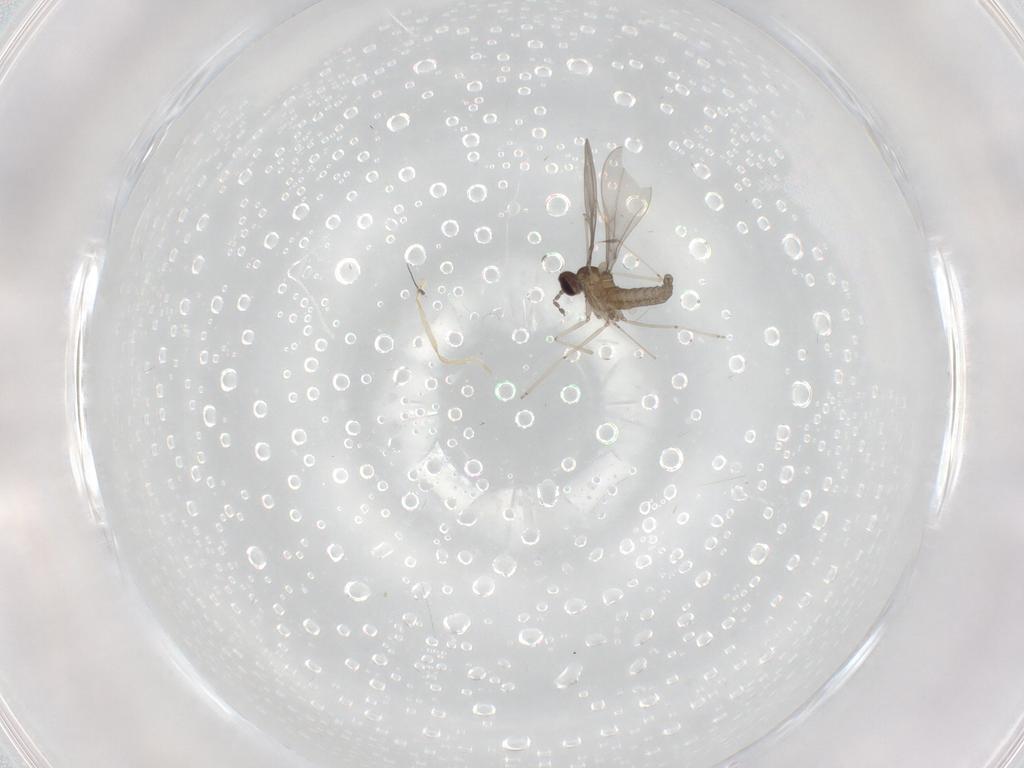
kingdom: Animalia
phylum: Arthropoda
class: Insecta
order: Diptera
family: Cecidomyiidae
